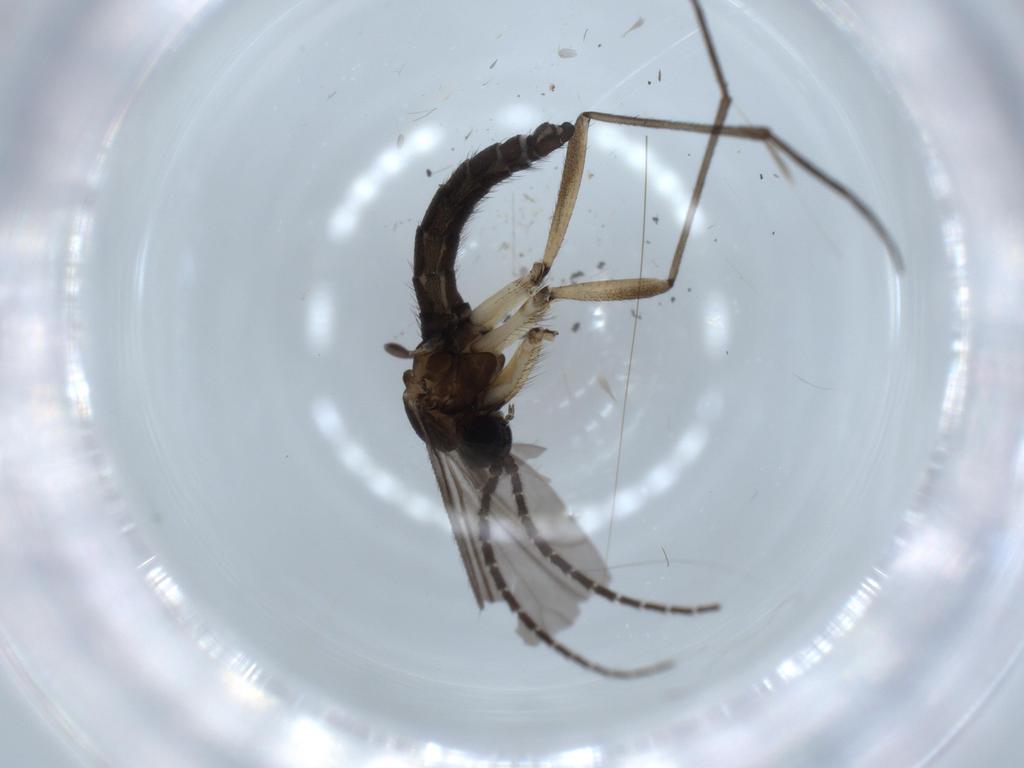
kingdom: Animalia
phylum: Arthropoda
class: Insecta
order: Diptera
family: Sciaridae
